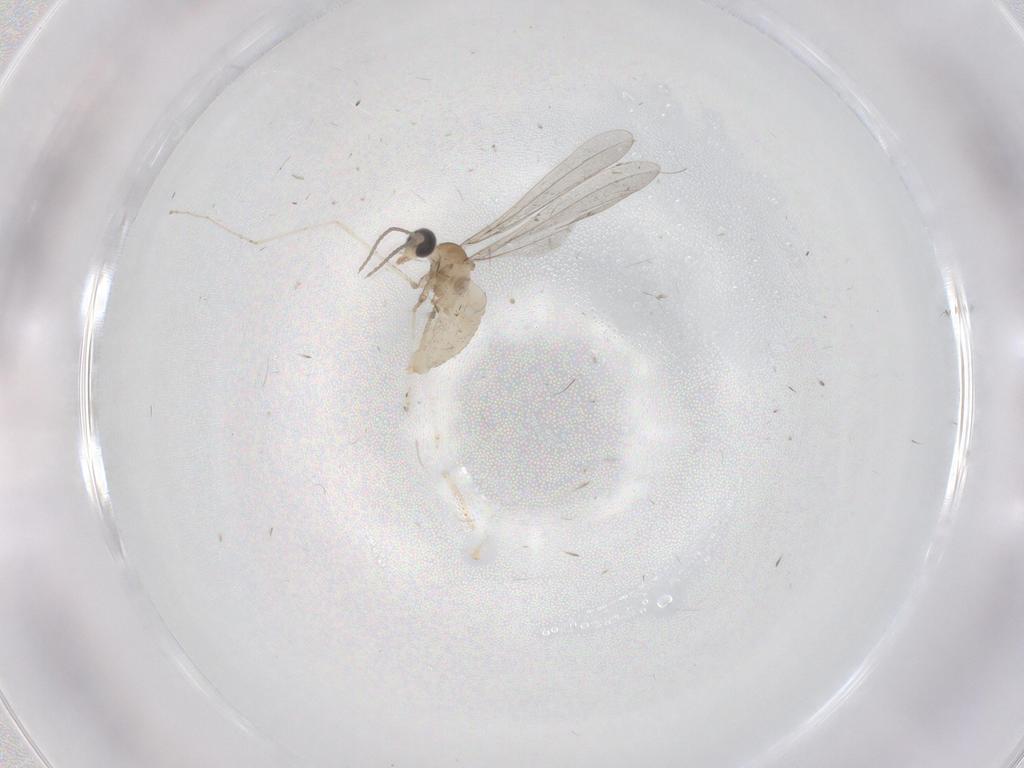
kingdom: Animalia
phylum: Arthropoda
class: Insecta
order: Diptera
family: Cecidomyiidae
